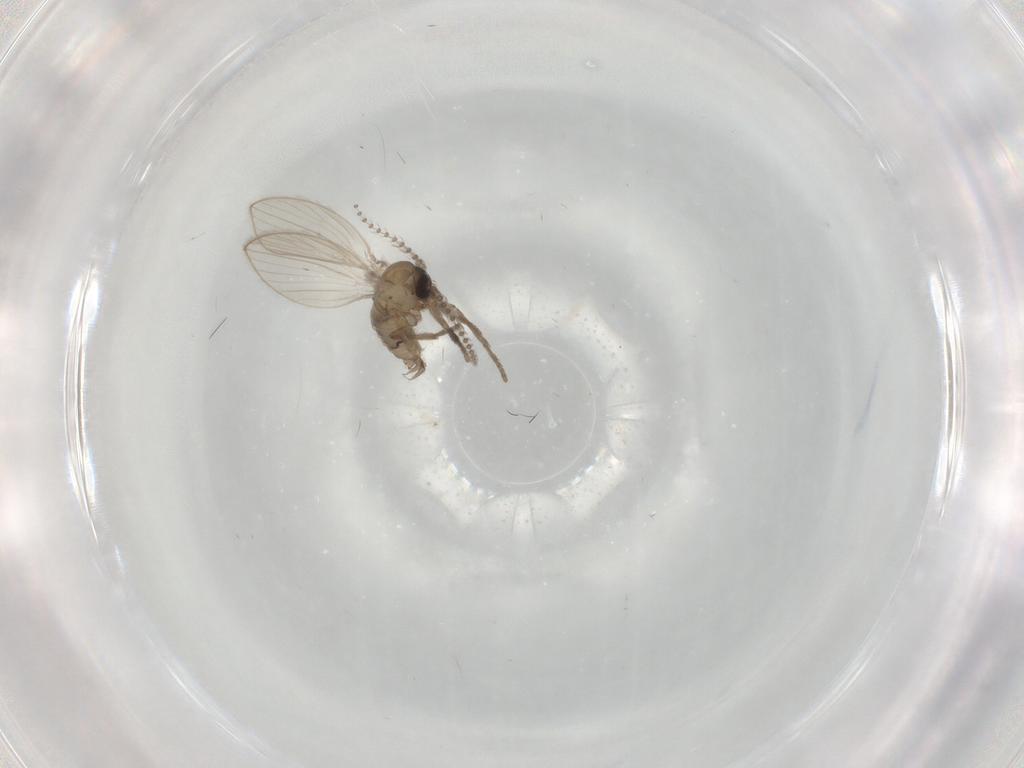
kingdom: Animalia
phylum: Arthropoda
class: Insecta
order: Diptera
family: Psychodidae
